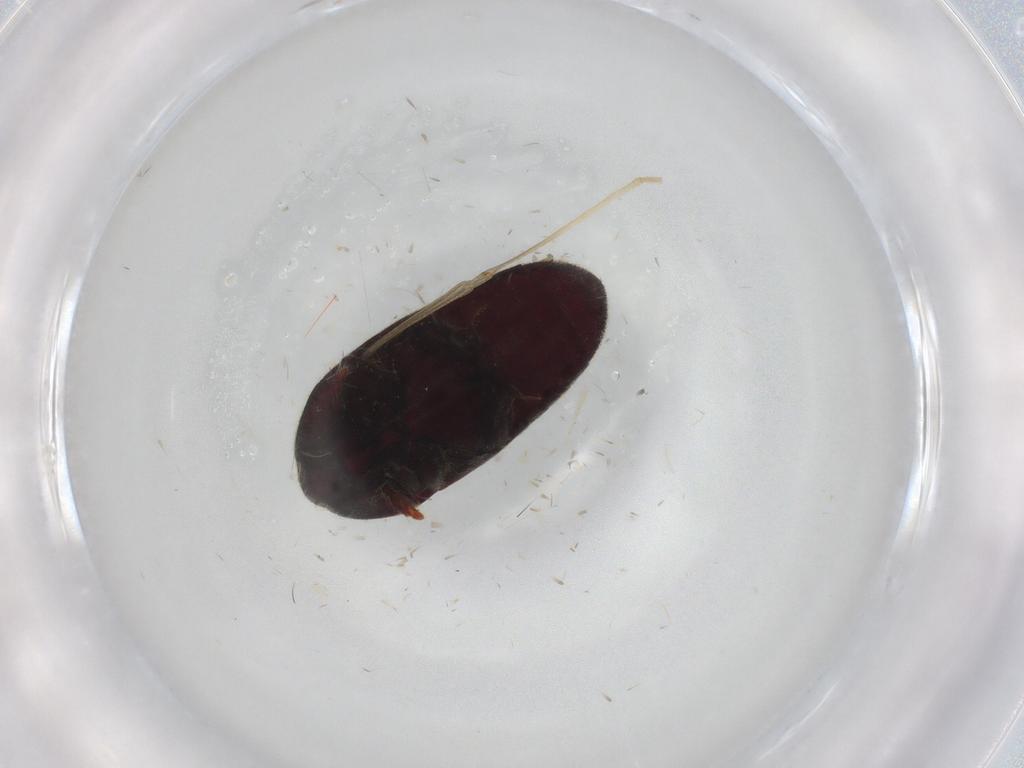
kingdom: Animalia
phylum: Arthropoda
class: Insecta
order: Coleoptera
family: Throscidae
